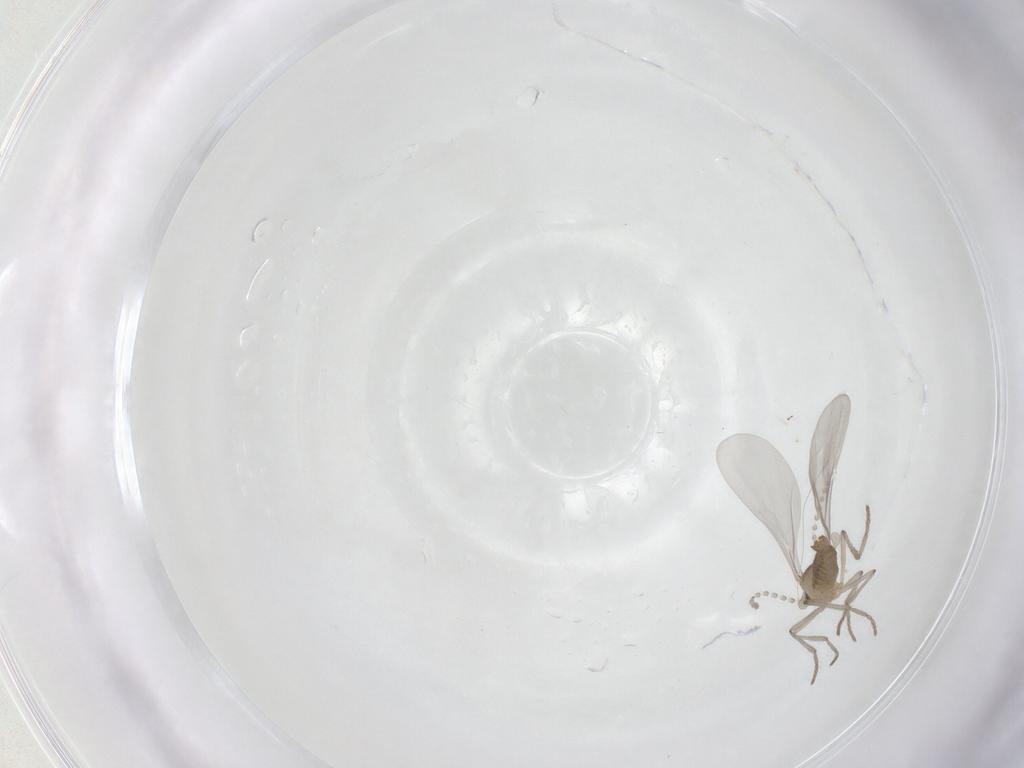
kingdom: Animalia
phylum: Arthropoda
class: Insecta
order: Diptera
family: Cecidomyiidae
